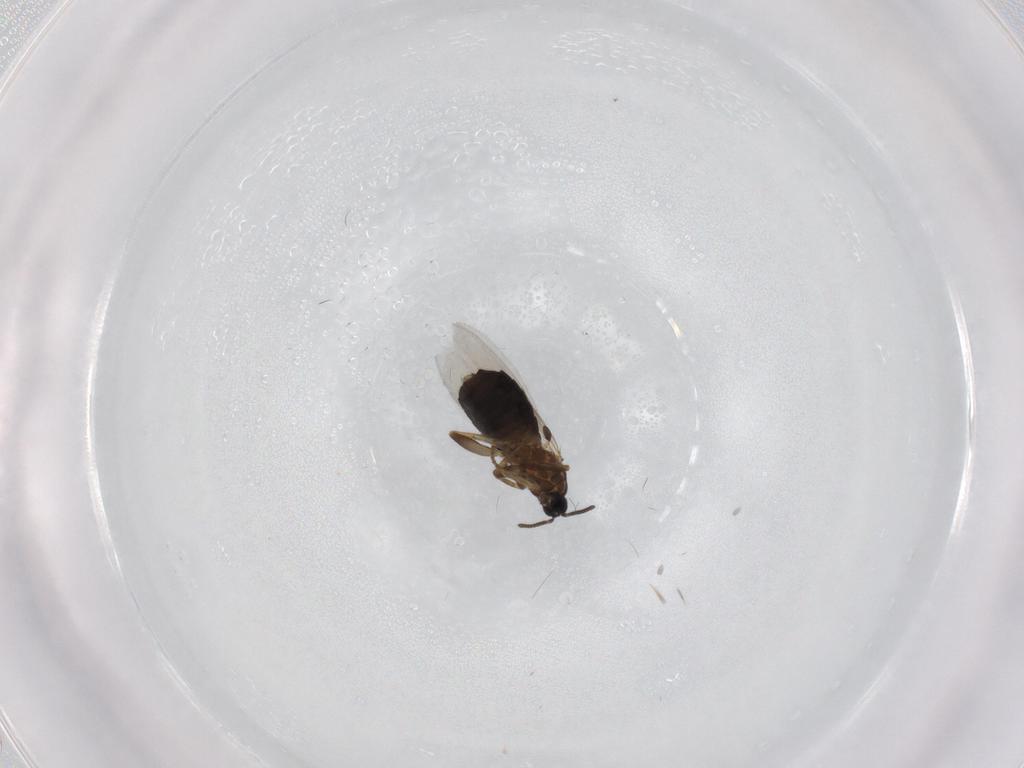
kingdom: Animalia
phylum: Arthropoda
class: Insecta
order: Diptera
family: Scatopsidae
